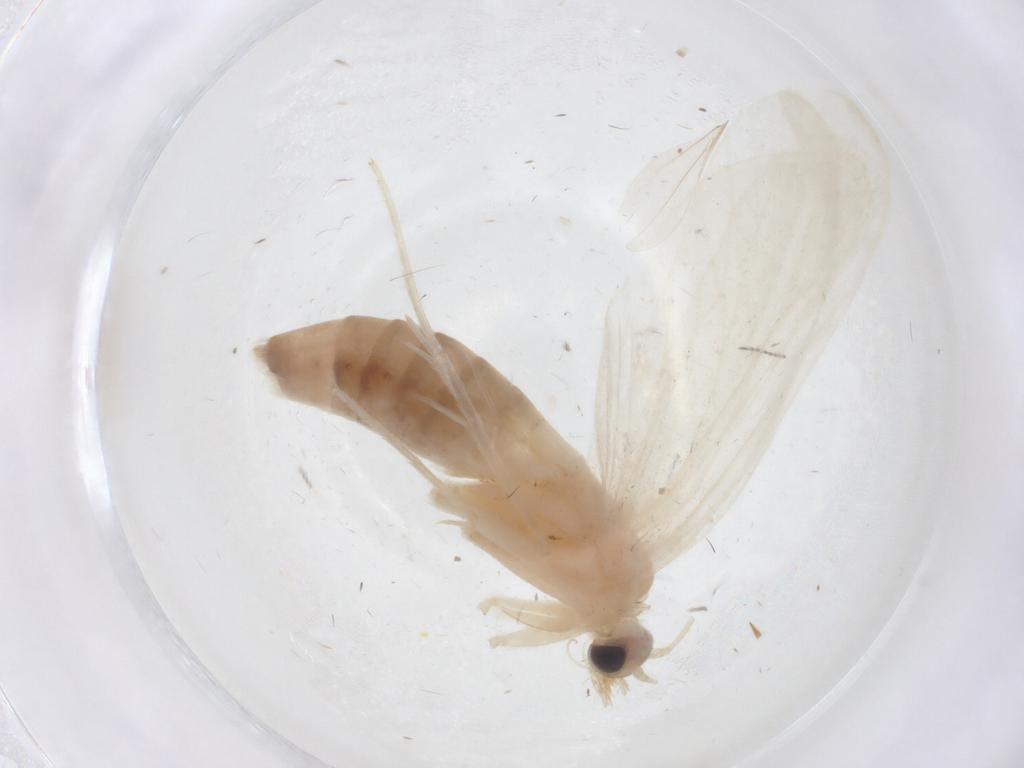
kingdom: Animalia
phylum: Arthropoda
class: Insecta
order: Lepidoptera
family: Crambidae
